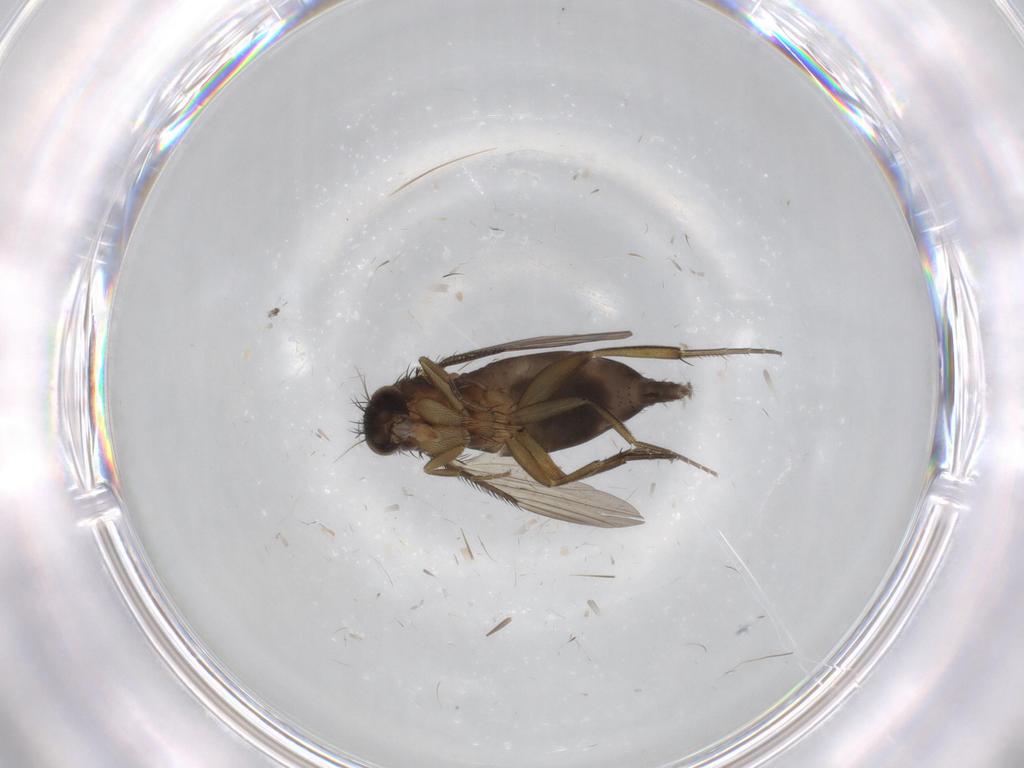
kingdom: Animalia
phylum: Arthropoda
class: Insecta
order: Diptera
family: Phoridae
